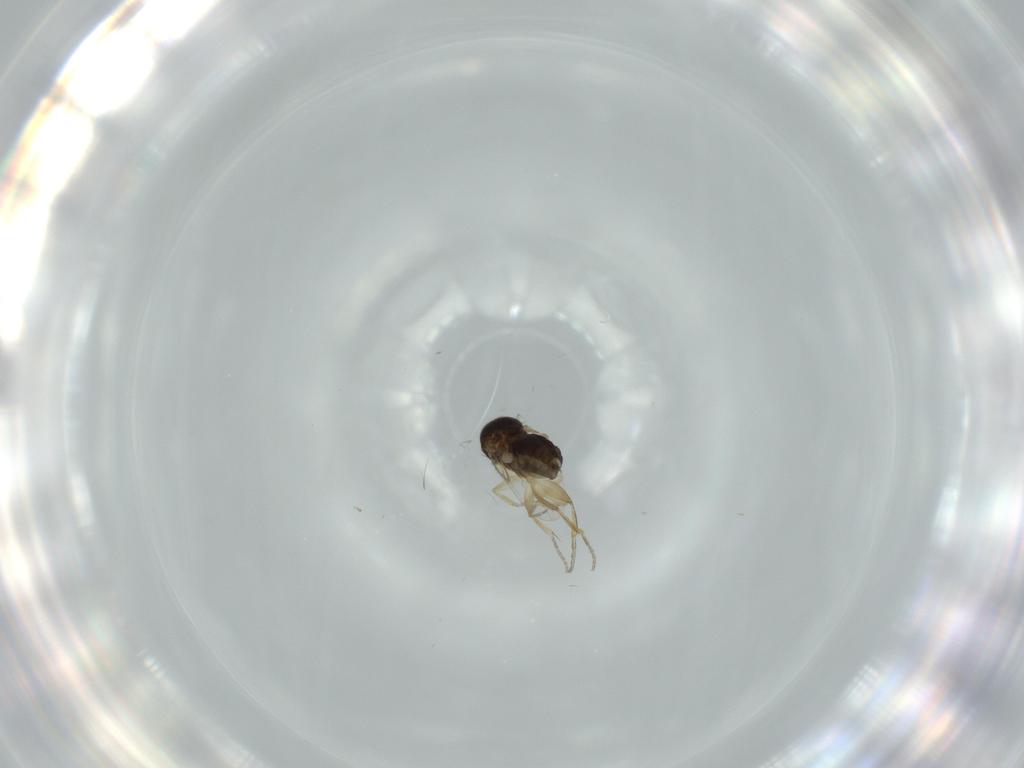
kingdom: Animalia
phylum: Arthropoda
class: Insecta
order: Diptera
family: Phoridae
